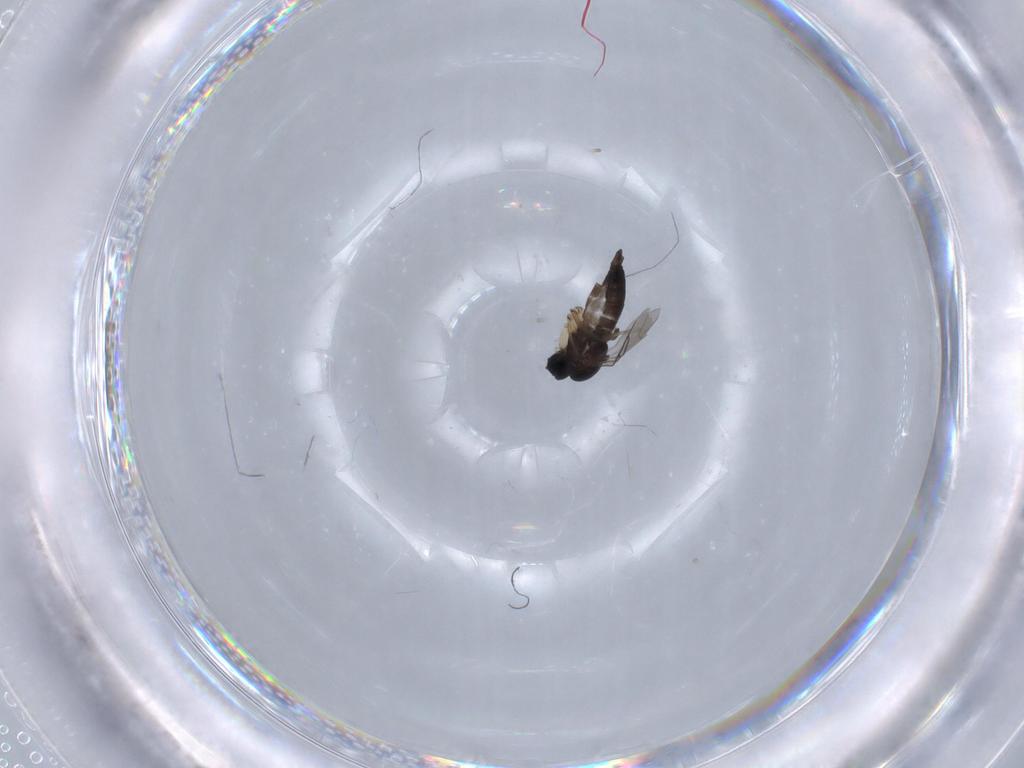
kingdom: Animalia
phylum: Arthropoda
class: Insecta
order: Diptera
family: Sciaridae
